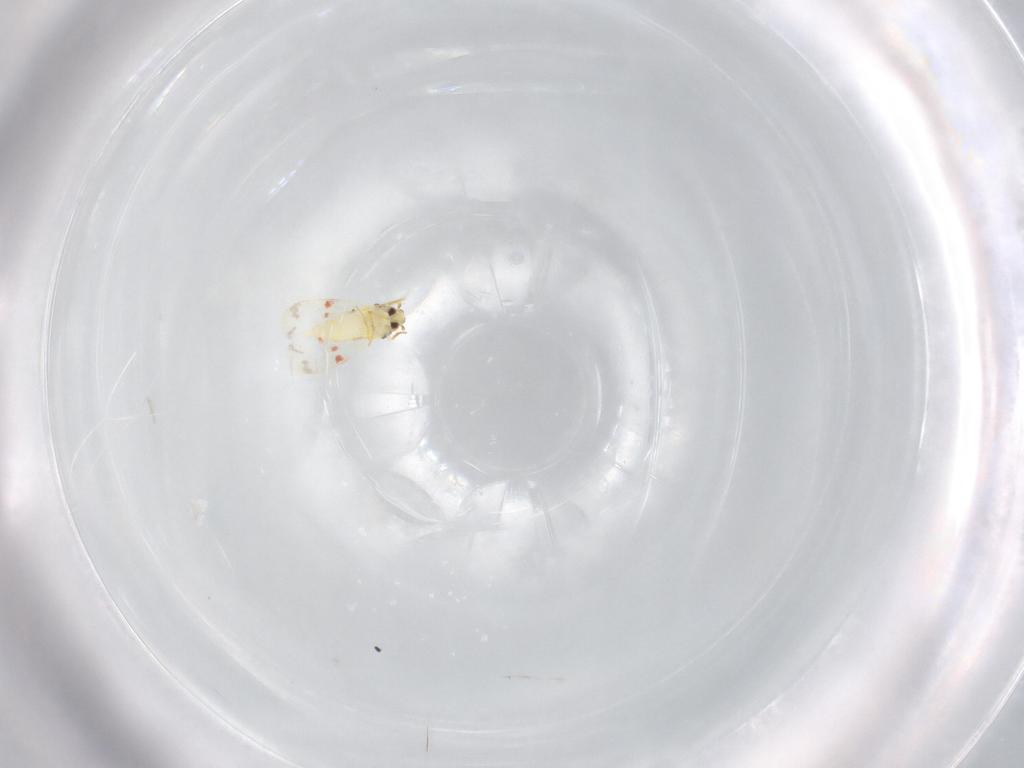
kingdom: Animalia
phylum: Arthropoda
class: Insecta
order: Hemiptera
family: Aleyrodidae
